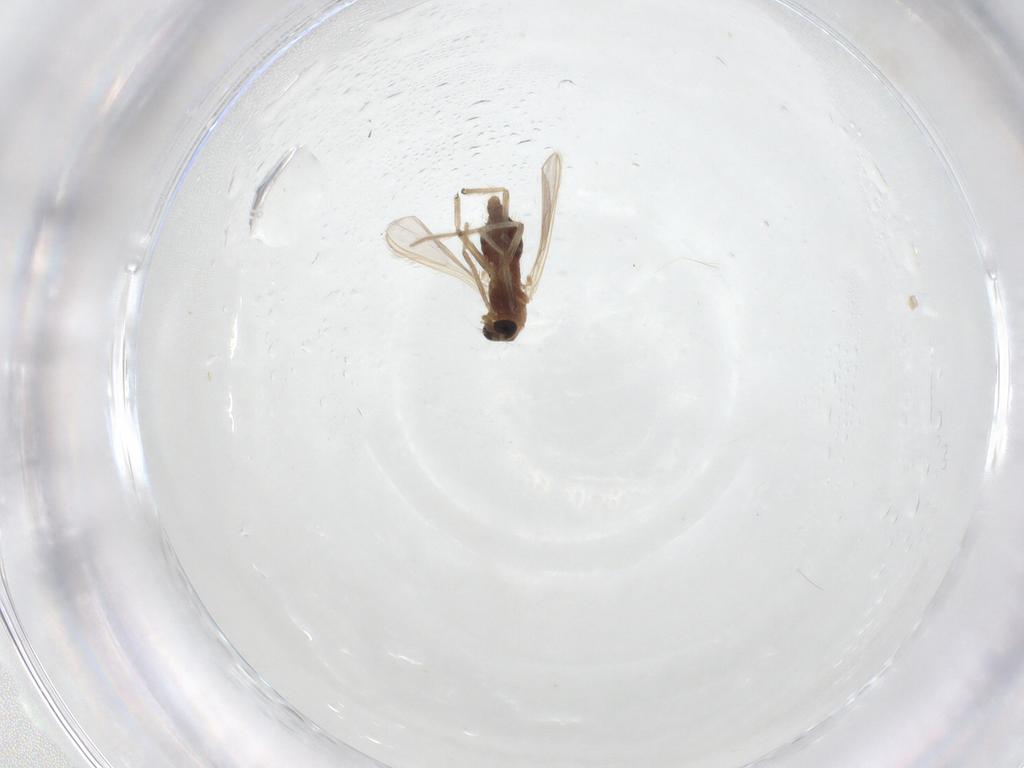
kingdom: Animalia
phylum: Arthropoda
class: Insecta
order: Diptera
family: Ceratopogonidae
